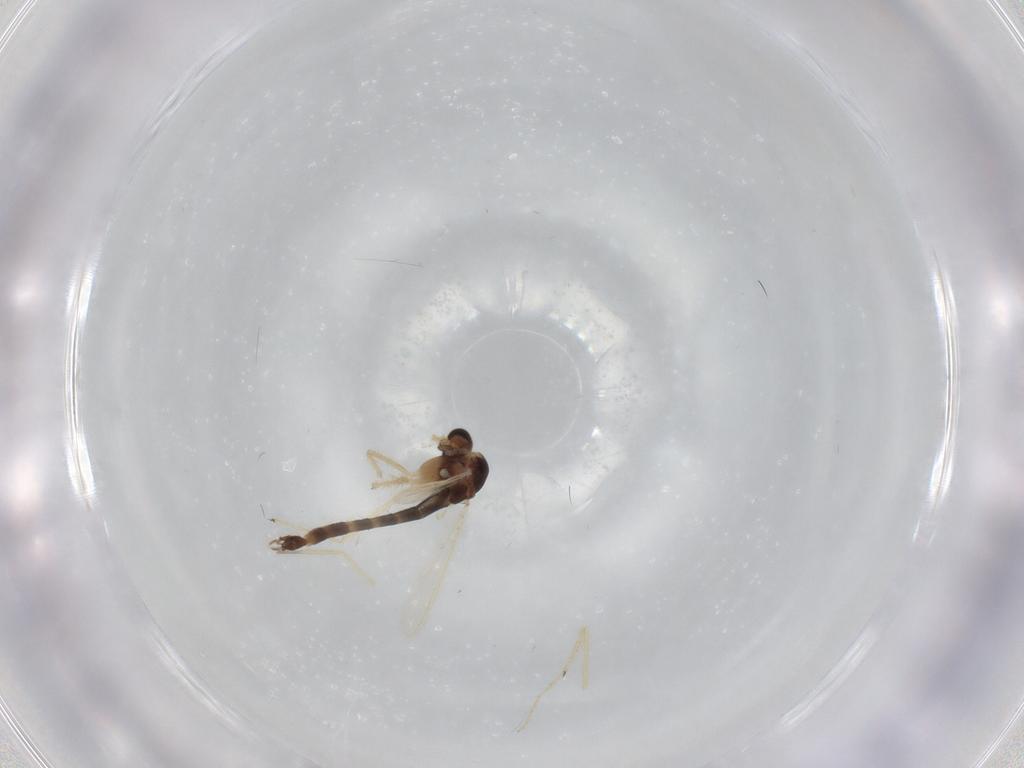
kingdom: Animalia
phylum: Arthropoda
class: Insecta
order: Diptera
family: Chironomidae
